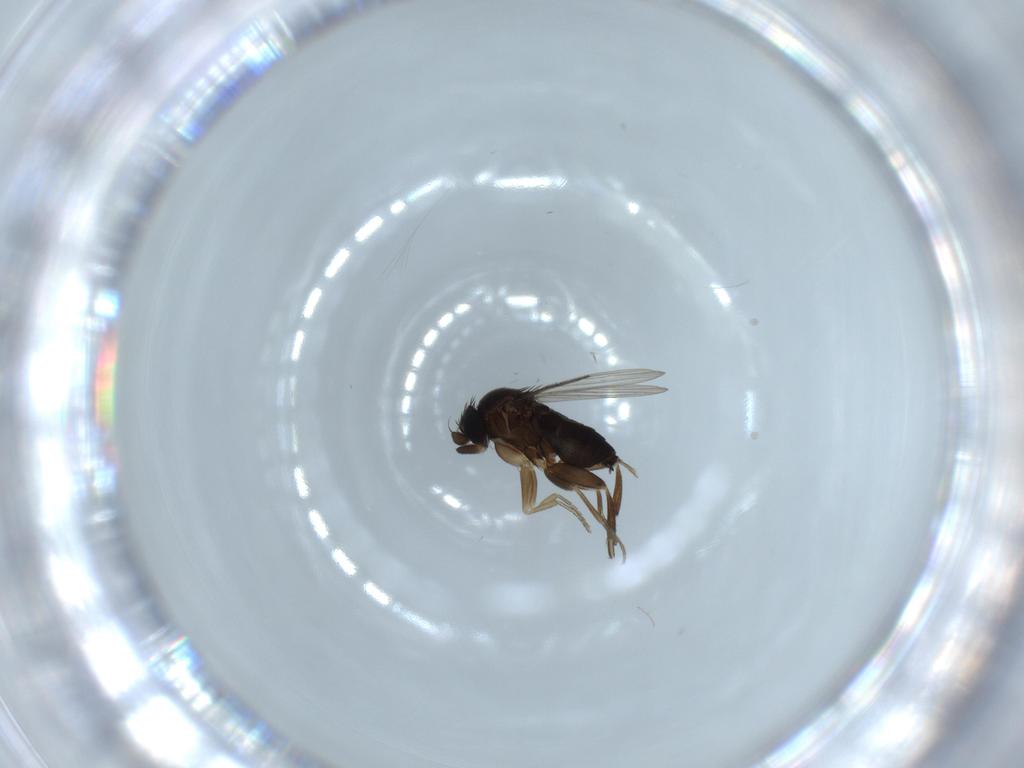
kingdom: Animalia
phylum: Arthropoda
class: Insecta
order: Diptera
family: Phoridae
